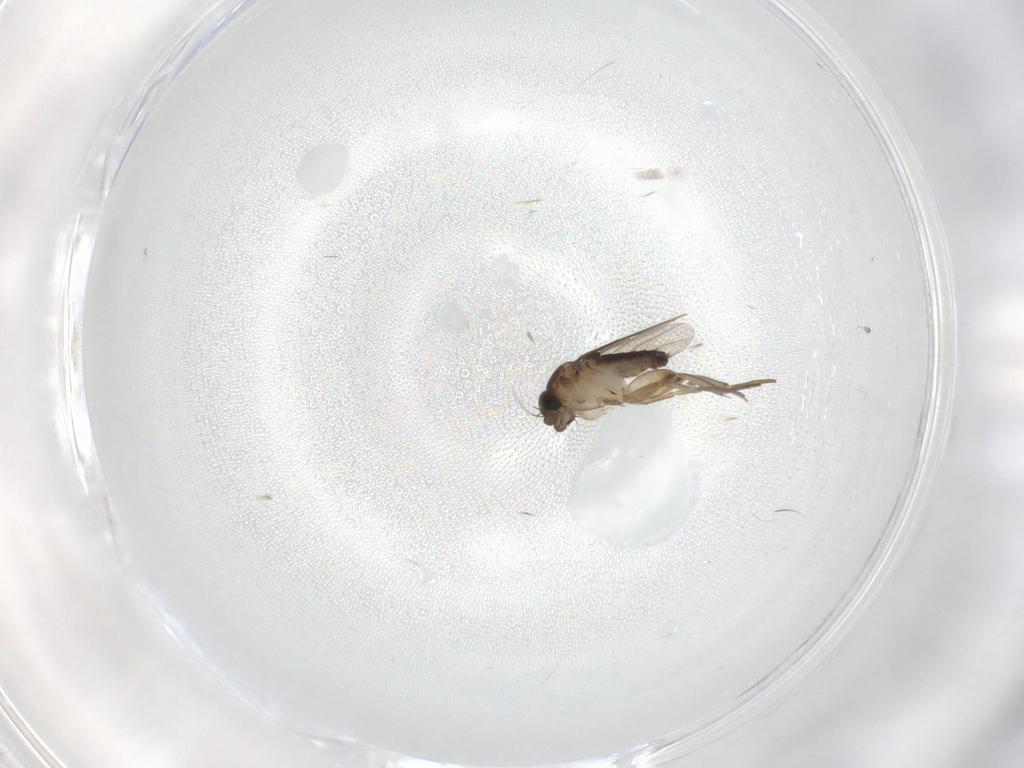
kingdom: Animalia
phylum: Arthropoda
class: Insecta
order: Diptera
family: Phoridae
